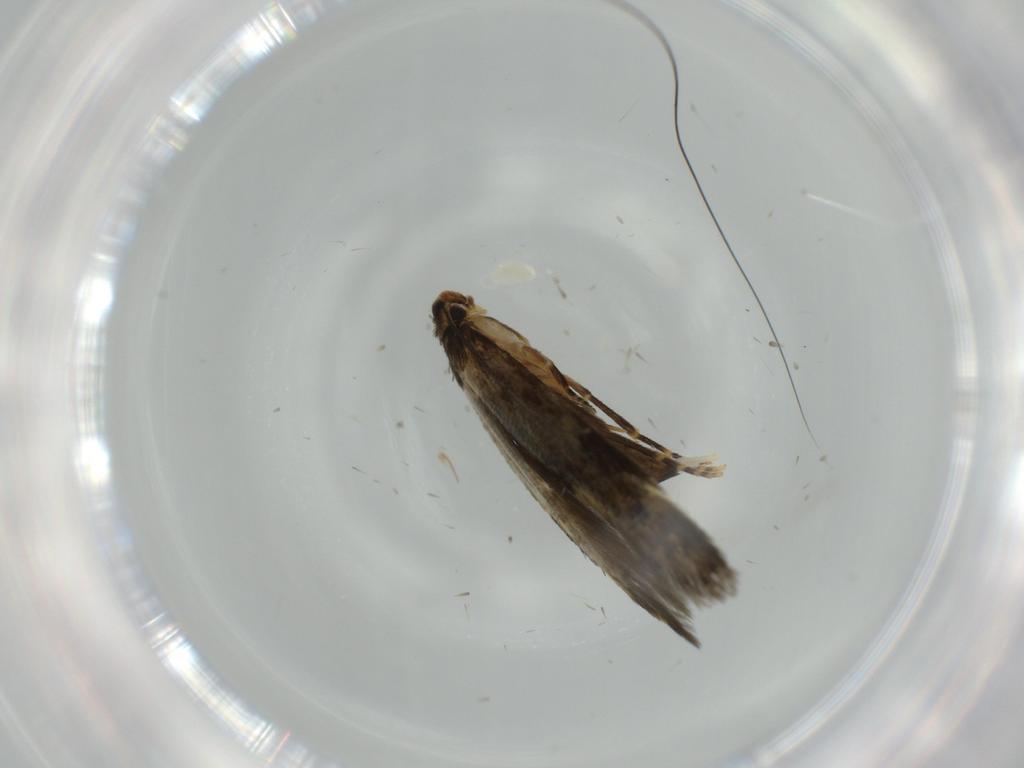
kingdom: Animalia
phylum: Arthropoda
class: Insecta
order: Lepidoptera
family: Tineidae
